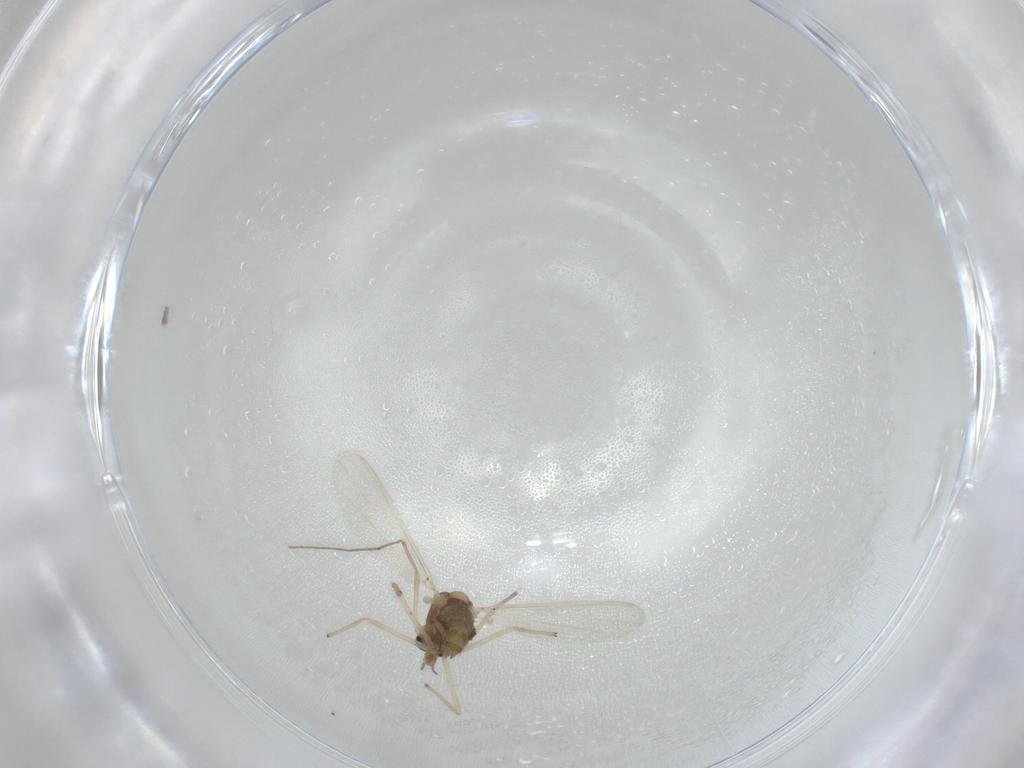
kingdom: Animalia
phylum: Arthropoda
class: Insecta
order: Diptera
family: Chironomidae
